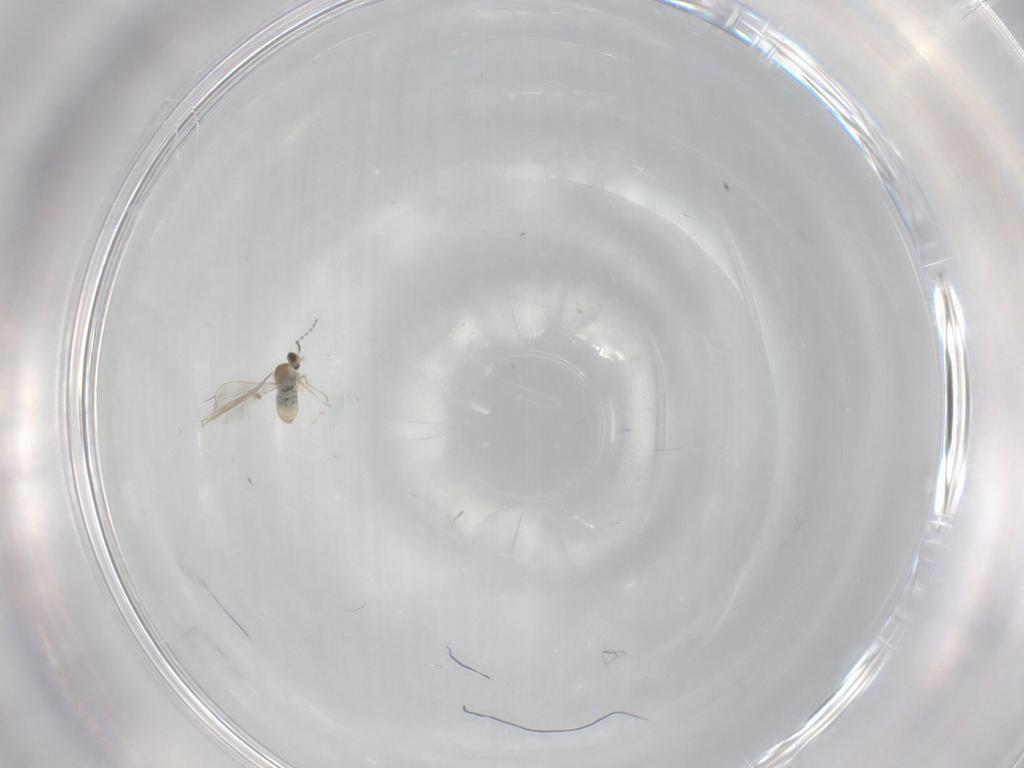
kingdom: Animalia
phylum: Arthropoda
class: Insecta
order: Diptera
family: Cecidomyiidae
